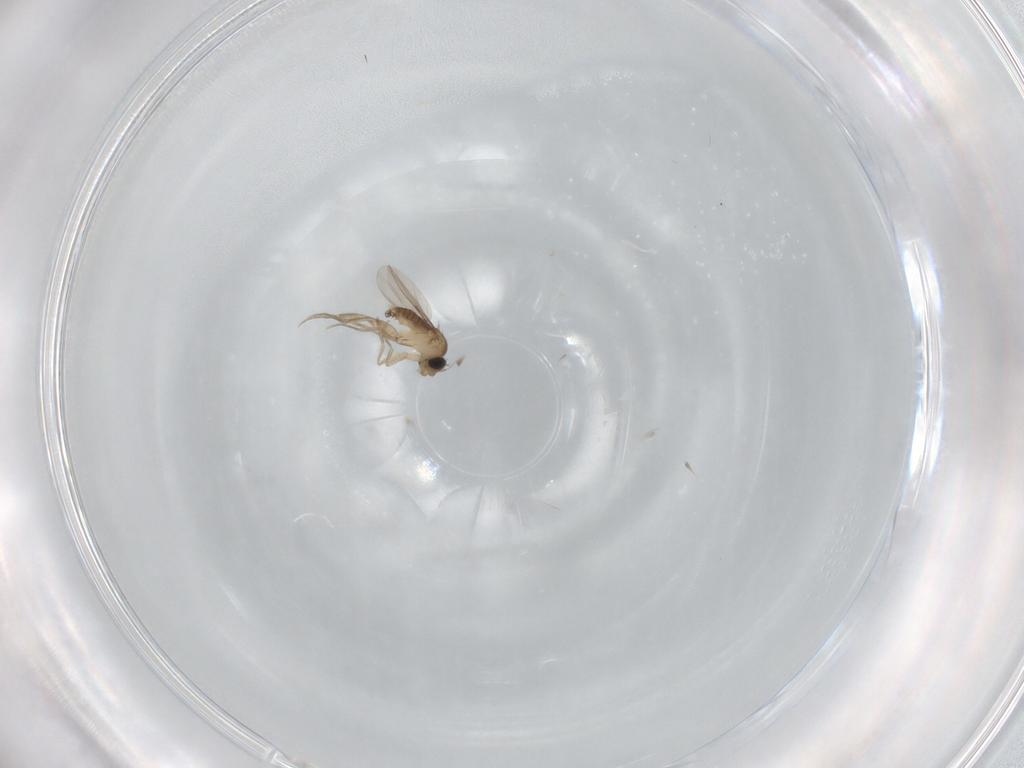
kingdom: Animalia
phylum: Arthropoda
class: Insecta
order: Diptera
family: Phoridae
